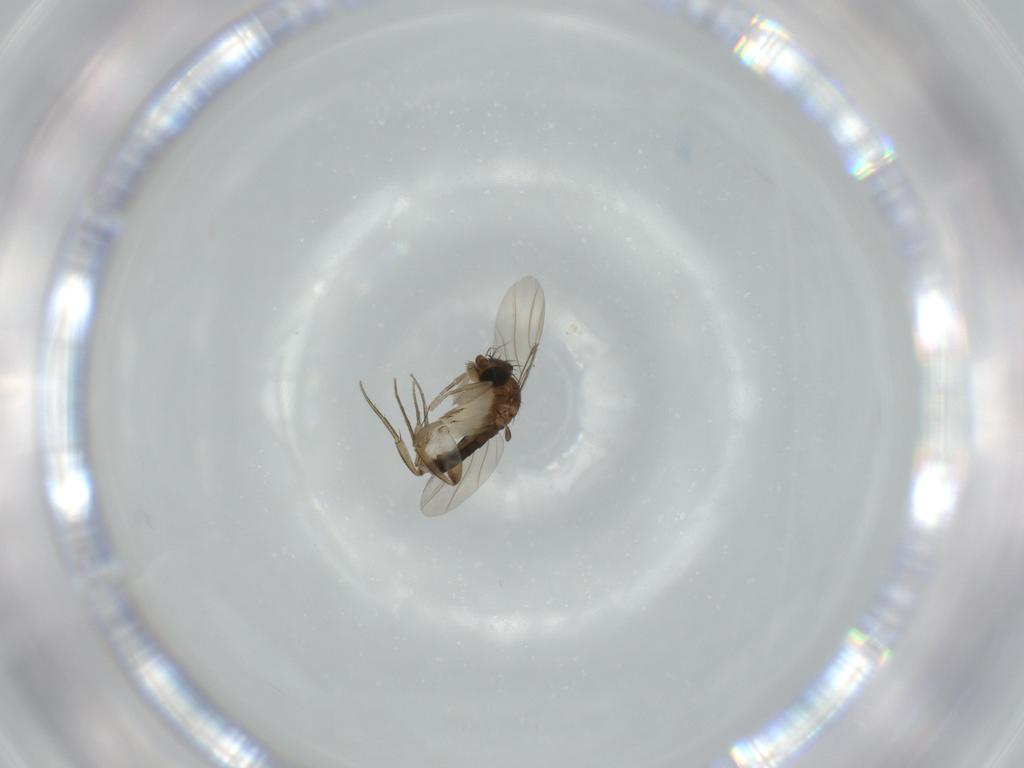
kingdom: Animalia
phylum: Arthropoda
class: Insecta
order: Diptera
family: Phoridae
